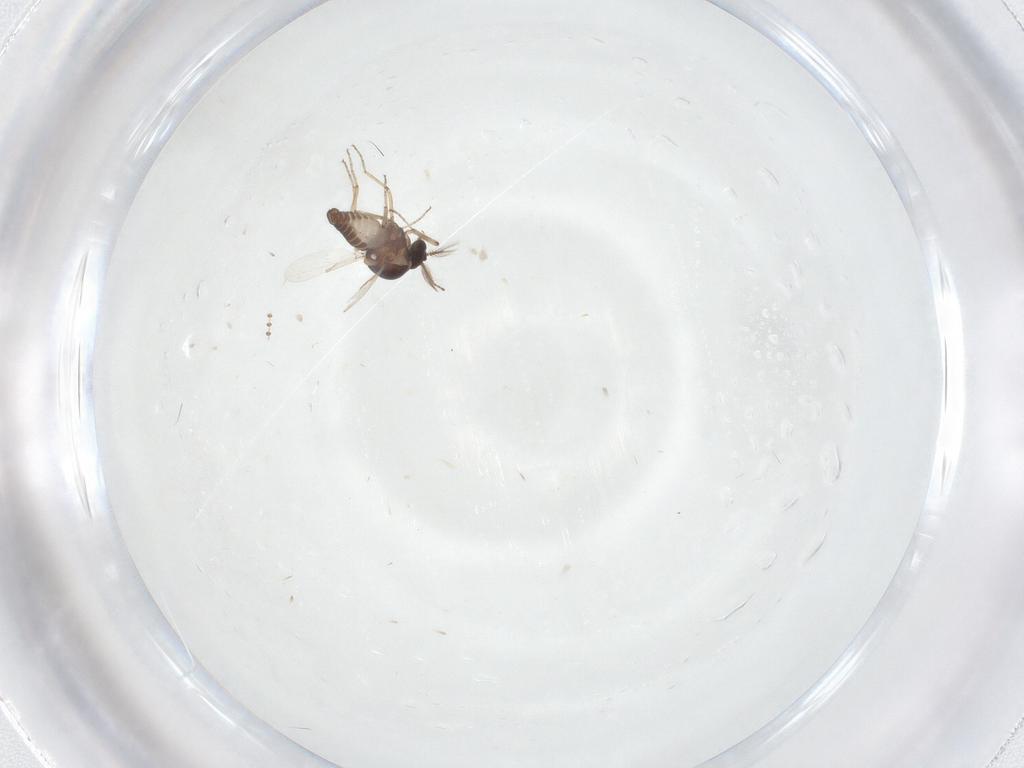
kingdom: Animalia
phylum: Arthropoda
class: Insecta
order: Diptera
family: Ceratopogonidae
